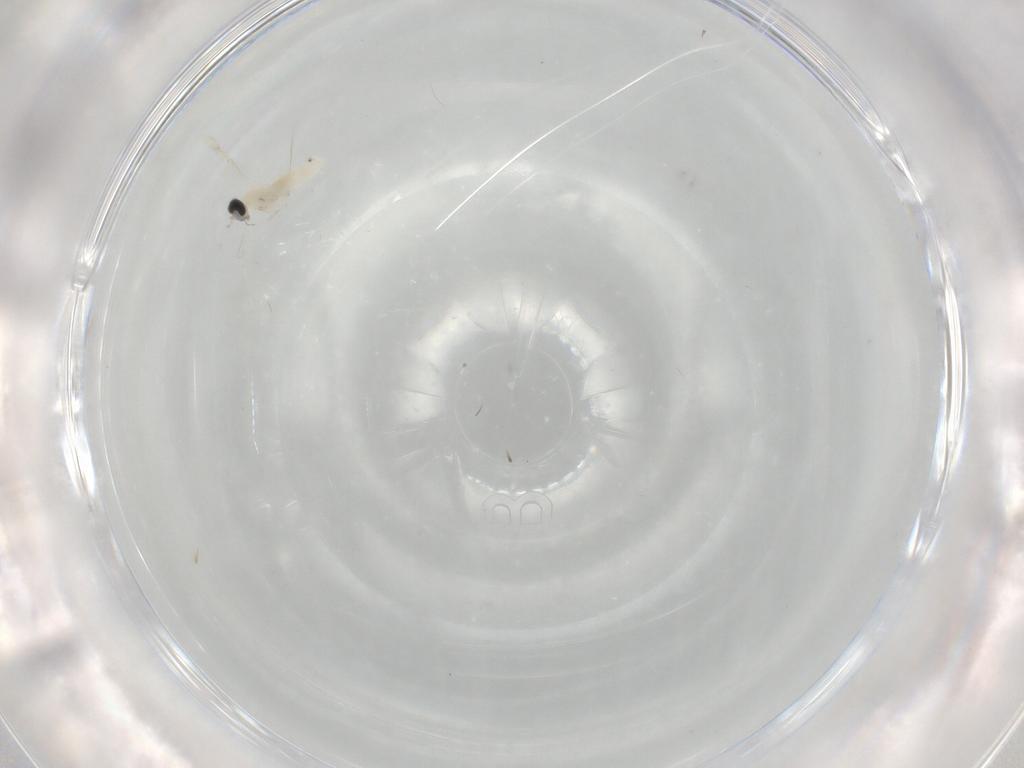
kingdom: Animalia
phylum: Arthropoda
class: Insecta
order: Diptera
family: Cecidomyiidae
